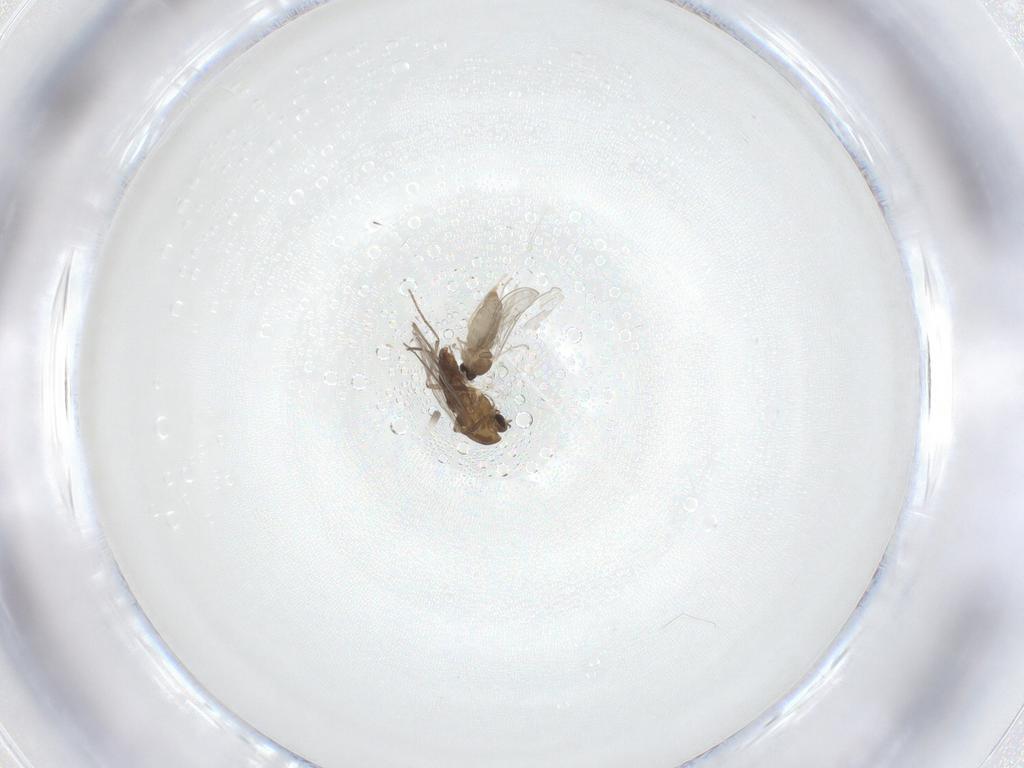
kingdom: Animalia
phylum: Arthropoda
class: Insecta
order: Diptera
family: Cecidomyiidae
